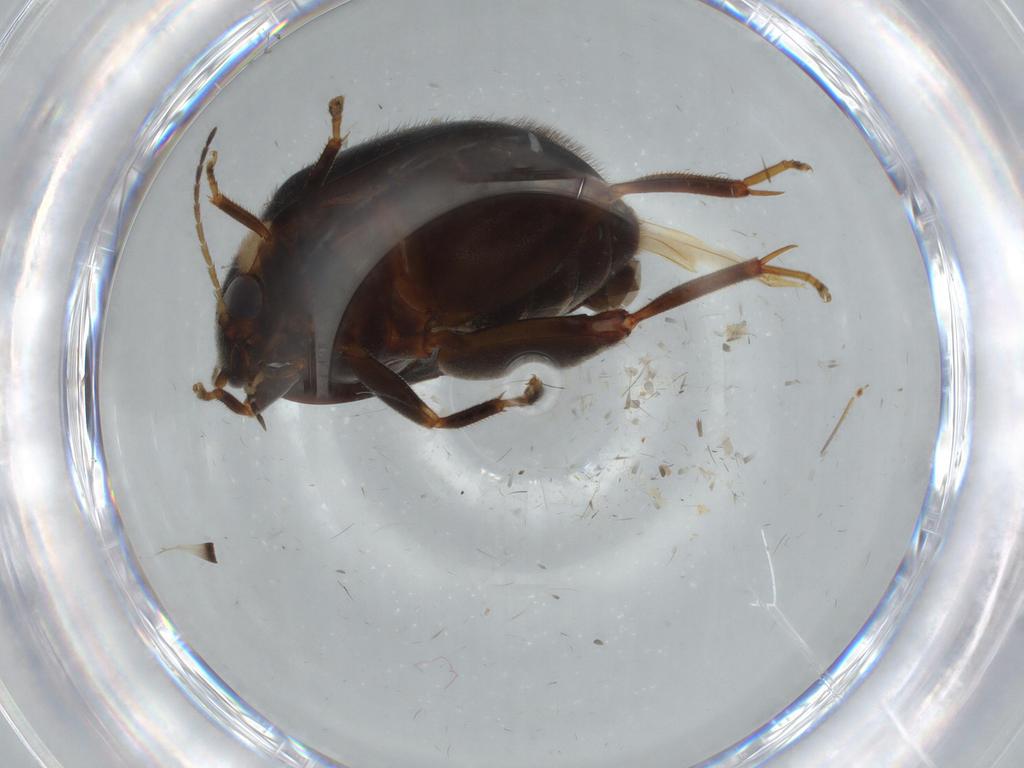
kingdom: Animalia
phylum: Arthropoda
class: Insecta
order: Coleoptera
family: Scirtidae
